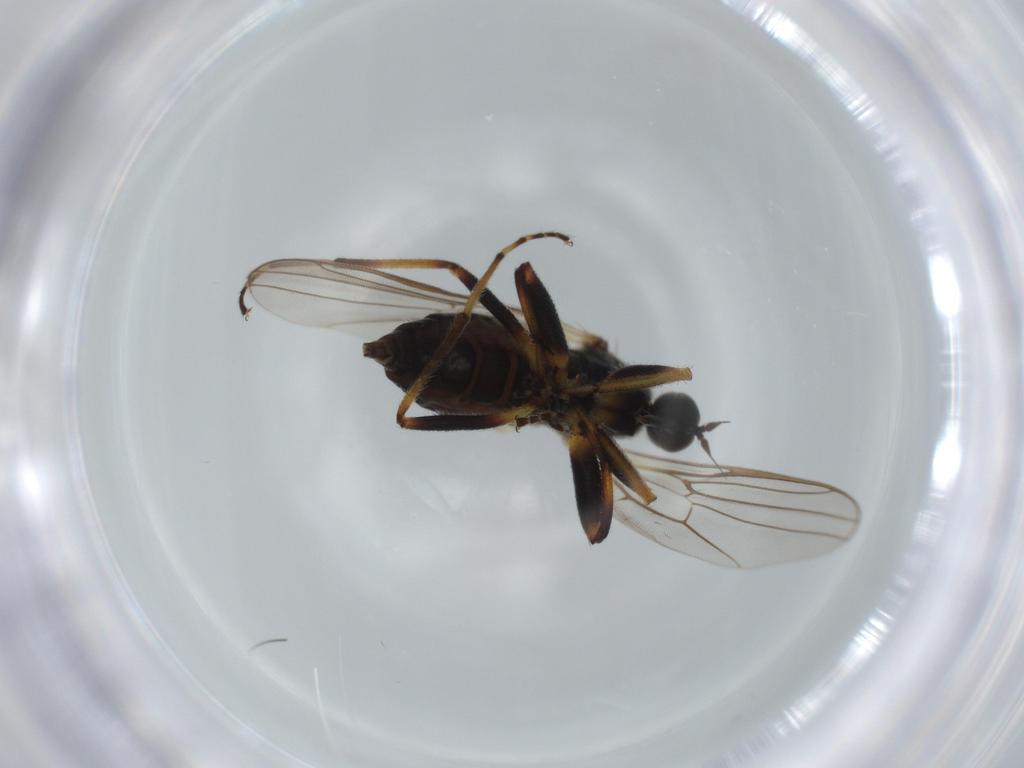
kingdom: Animalia
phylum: Arthropoda
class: Insecta
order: Diptera
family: Hybotidae
